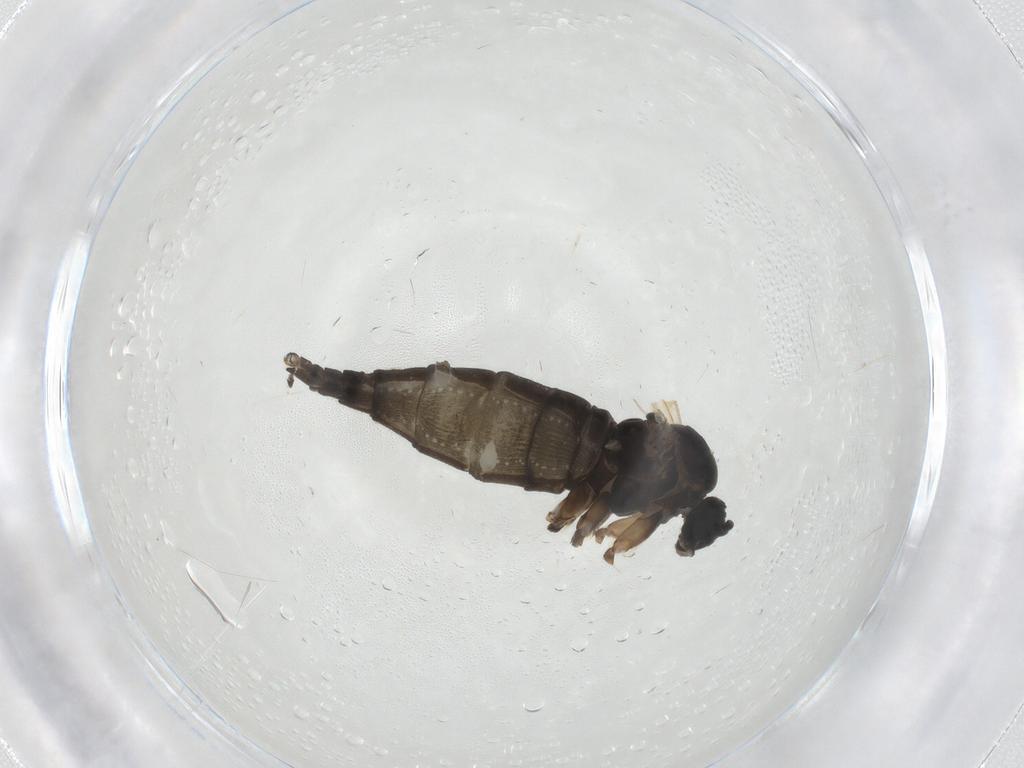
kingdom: Animalia
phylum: Arthropoda
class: Insecta
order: Diptera
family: Sciaridae
